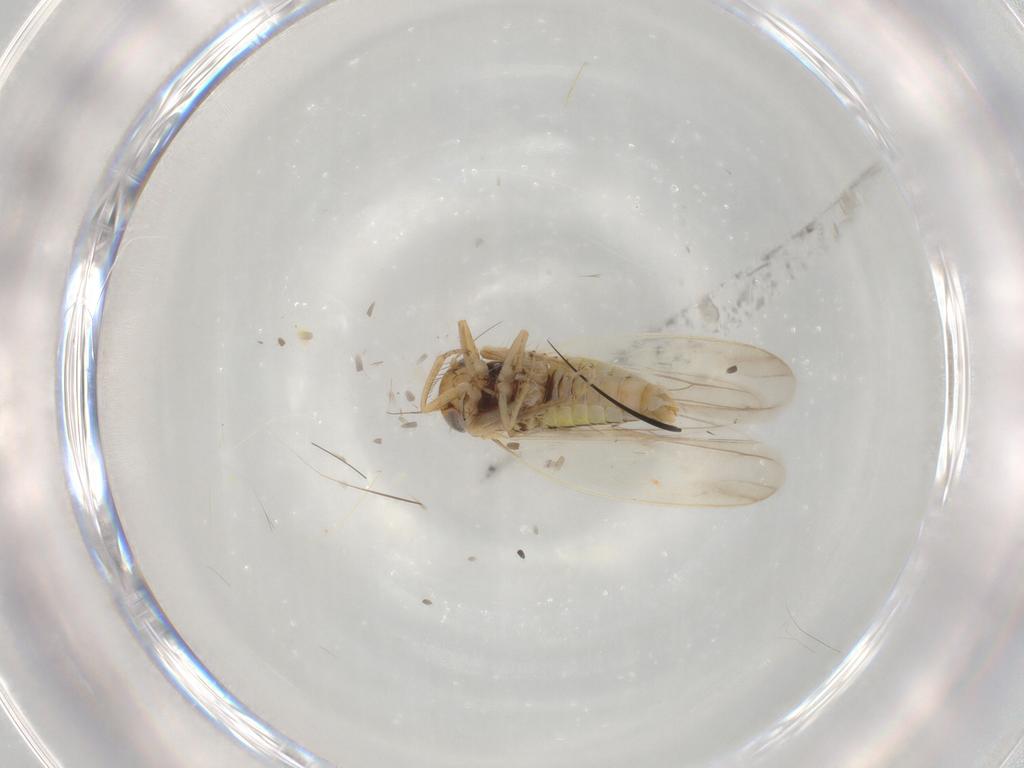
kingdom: Animalia
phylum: Arthropoda
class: Insecta
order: Hemiptera
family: Cicadellidae
